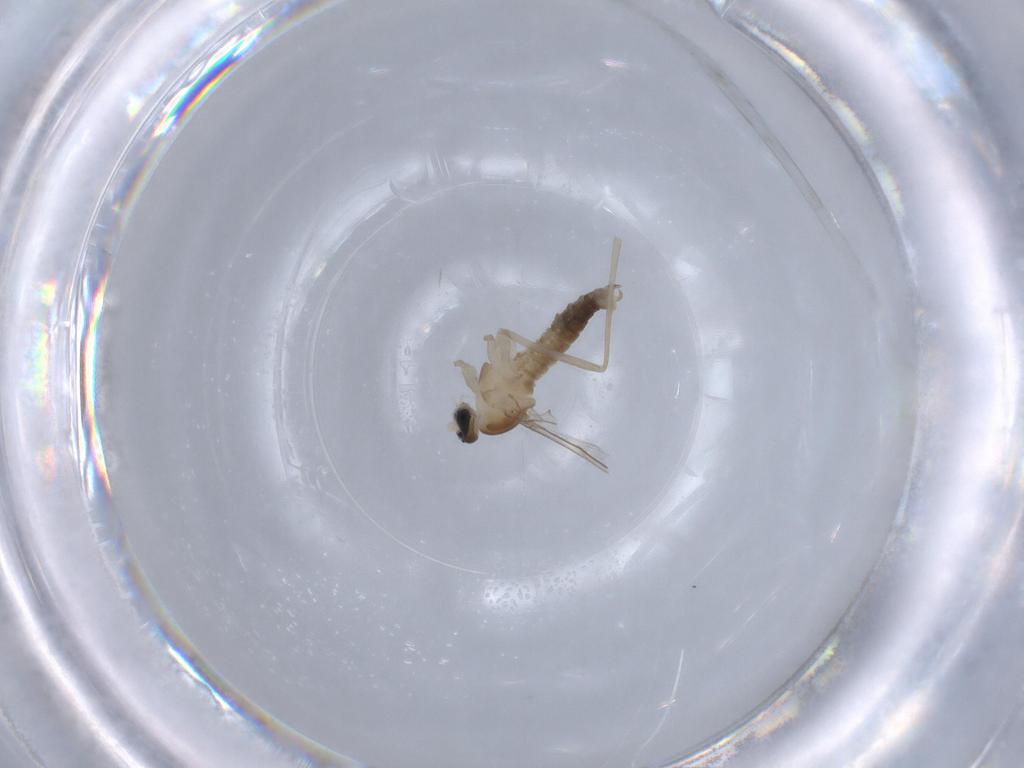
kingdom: Animalia
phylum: Arthropoda
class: Insecta
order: Diptera
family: Cecidomyiidae
